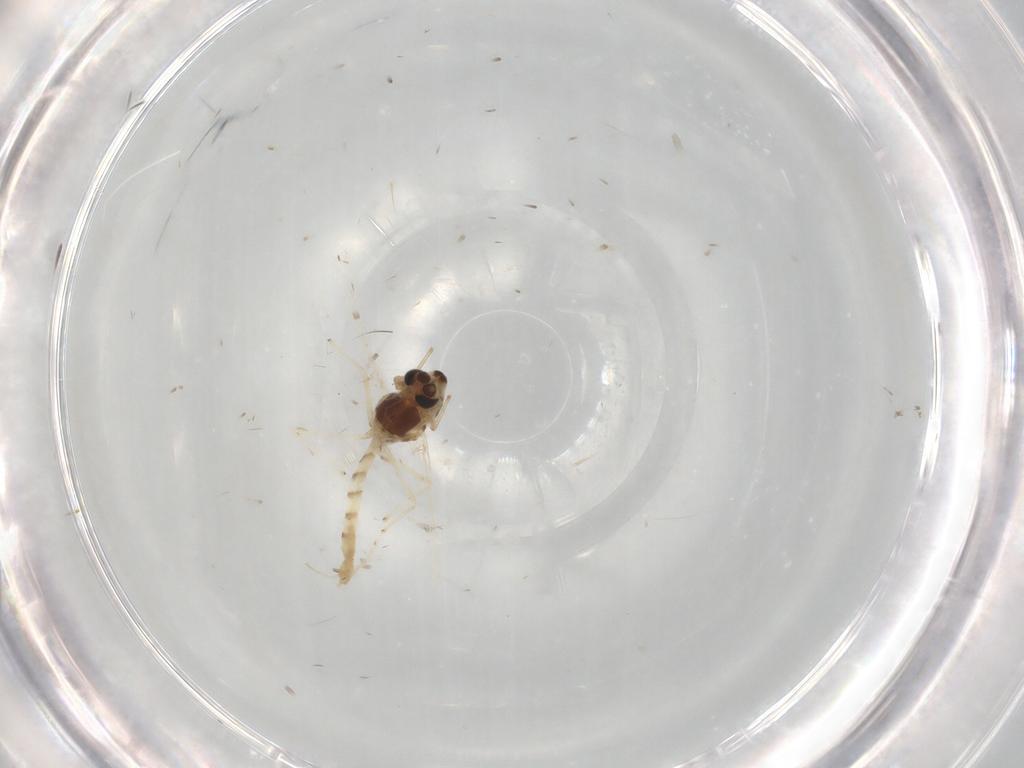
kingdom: Animalia
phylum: Arthropoda
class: Insecta
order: Diptera
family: Chironomidae
